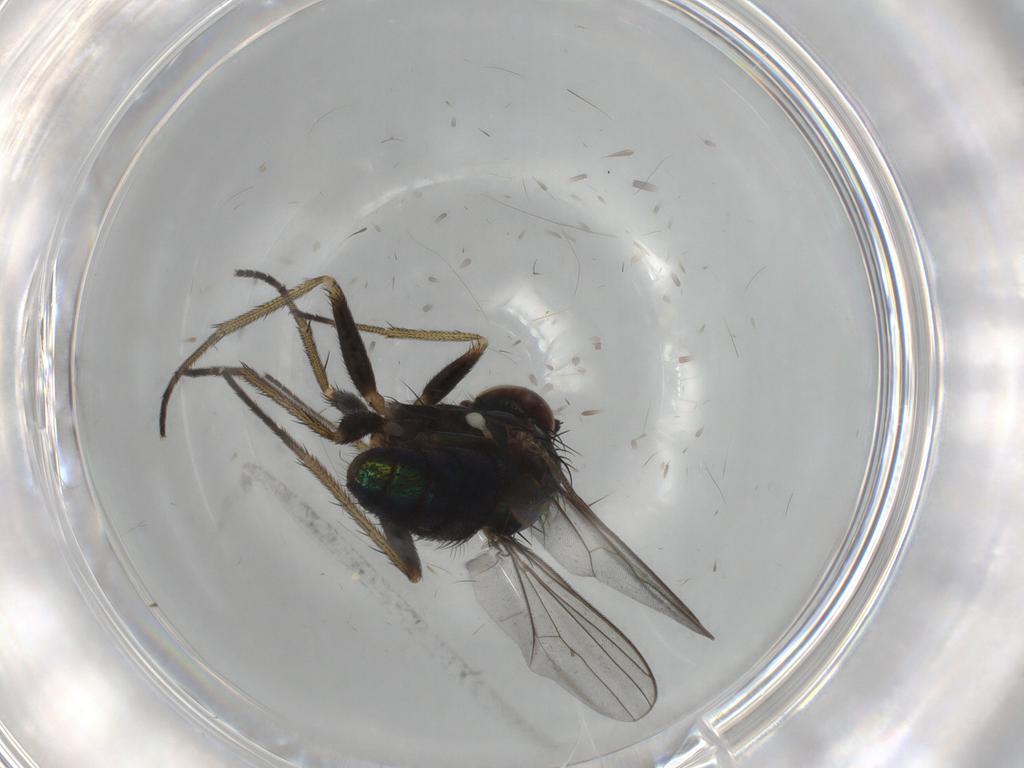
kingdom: Animalia
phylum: Arthropoda
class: Insecta
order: Diptera
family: Dolichopodidae
